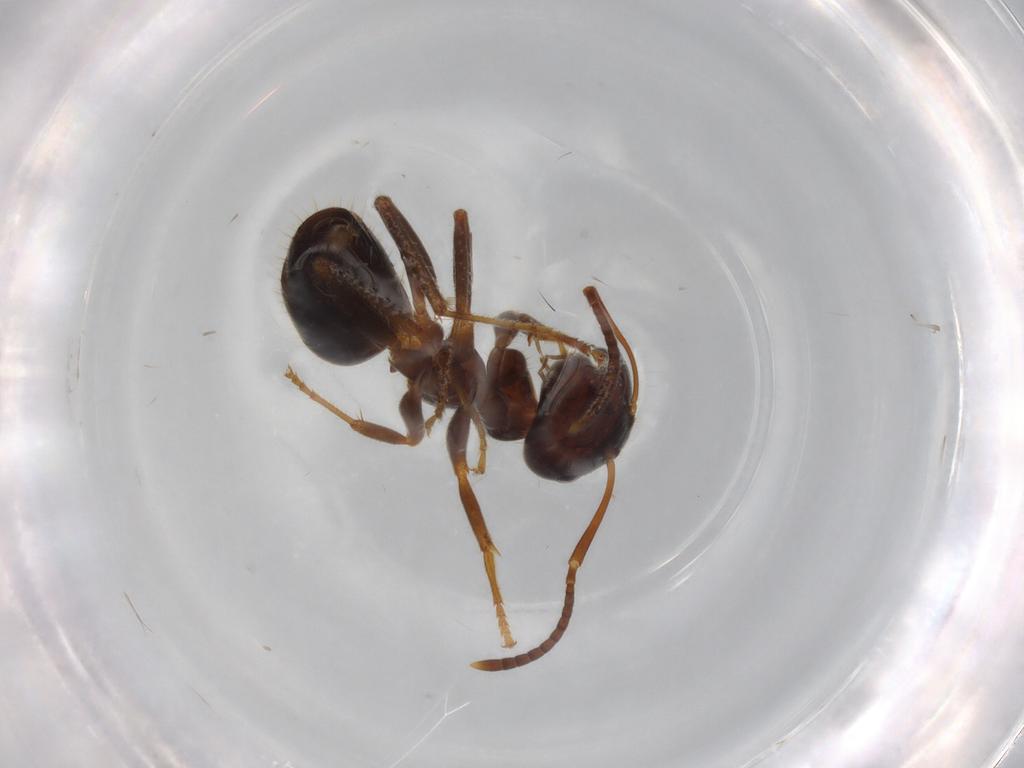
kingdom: Animalia
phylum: Arthropoda
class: Insecta
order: Hymenoptera
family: Formicidae
